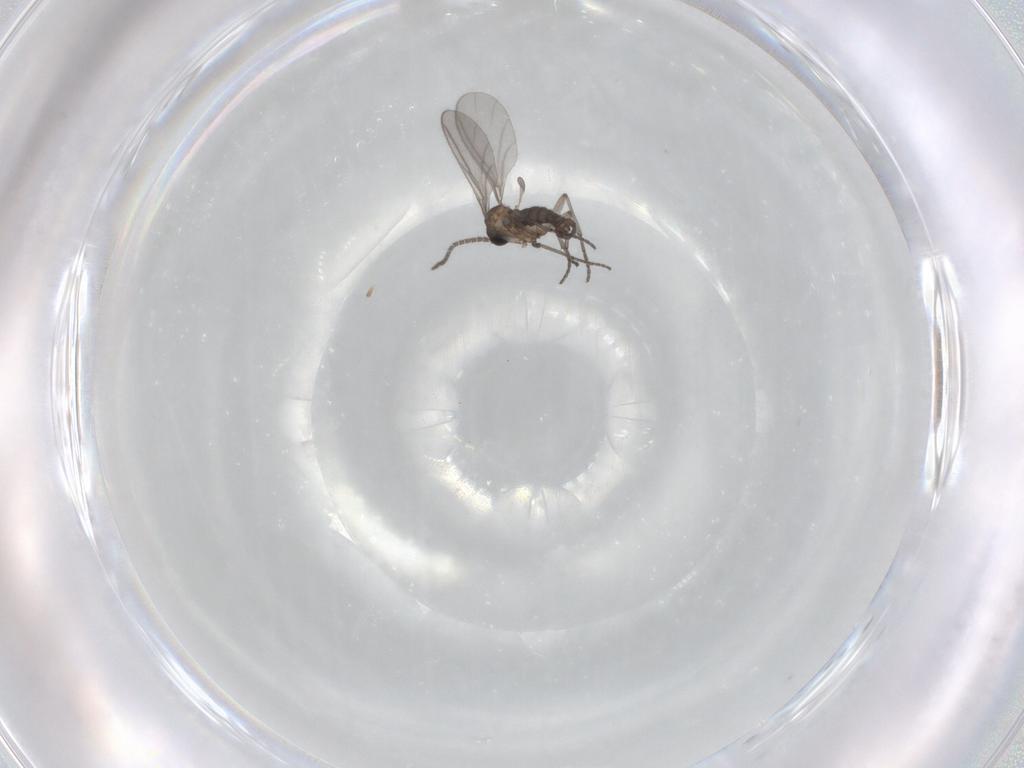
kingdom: Animalia
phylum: Arthropoda
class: Insecta
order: Diptera
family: Sciaridae
